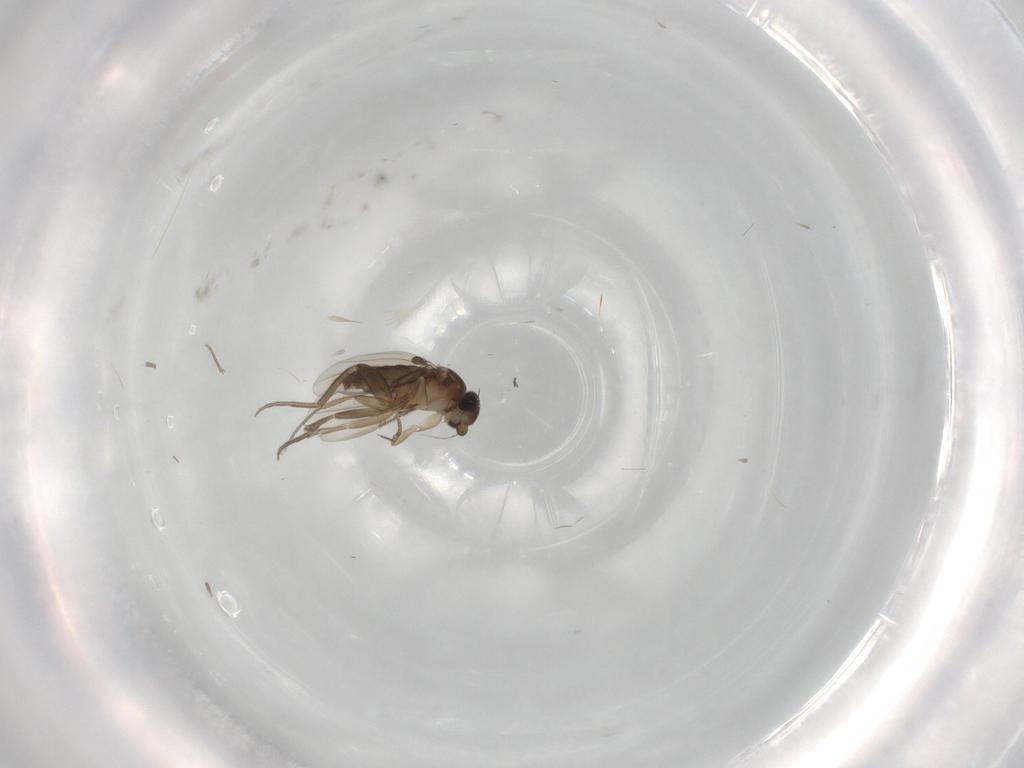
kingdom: Animalia
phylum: Arthropoda
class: Insecta
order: Diptera
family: Phoridae
